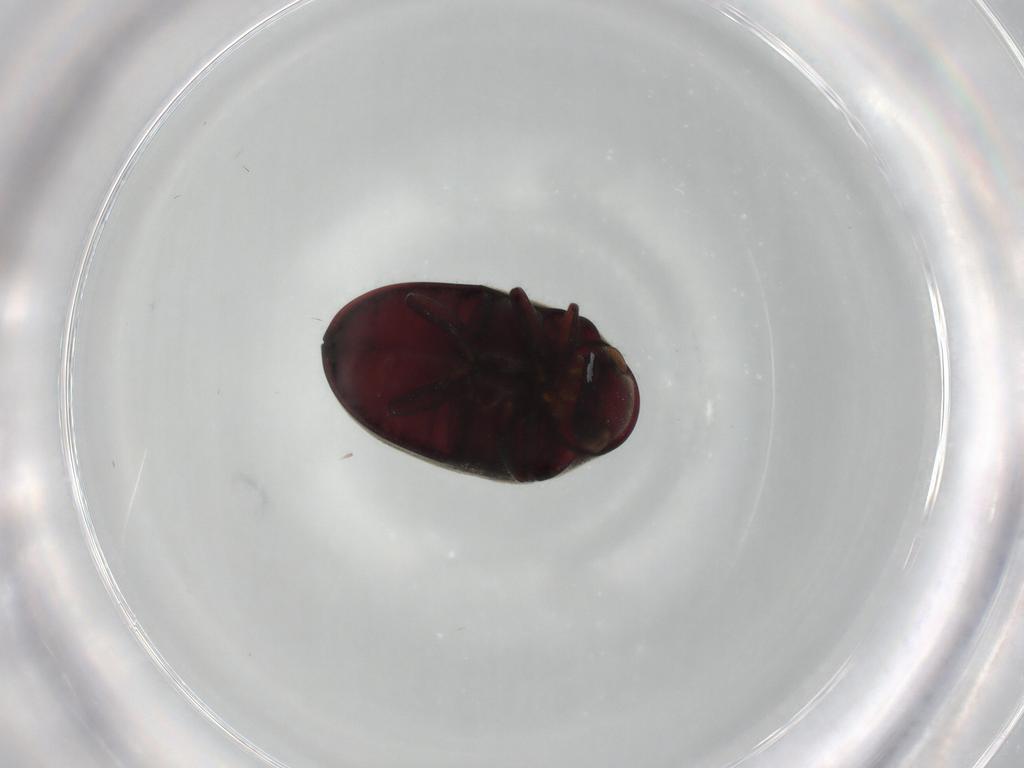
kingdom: Animalia
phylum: Arthropoda
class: Insecta
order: Coleoptera
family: Ptinidae
